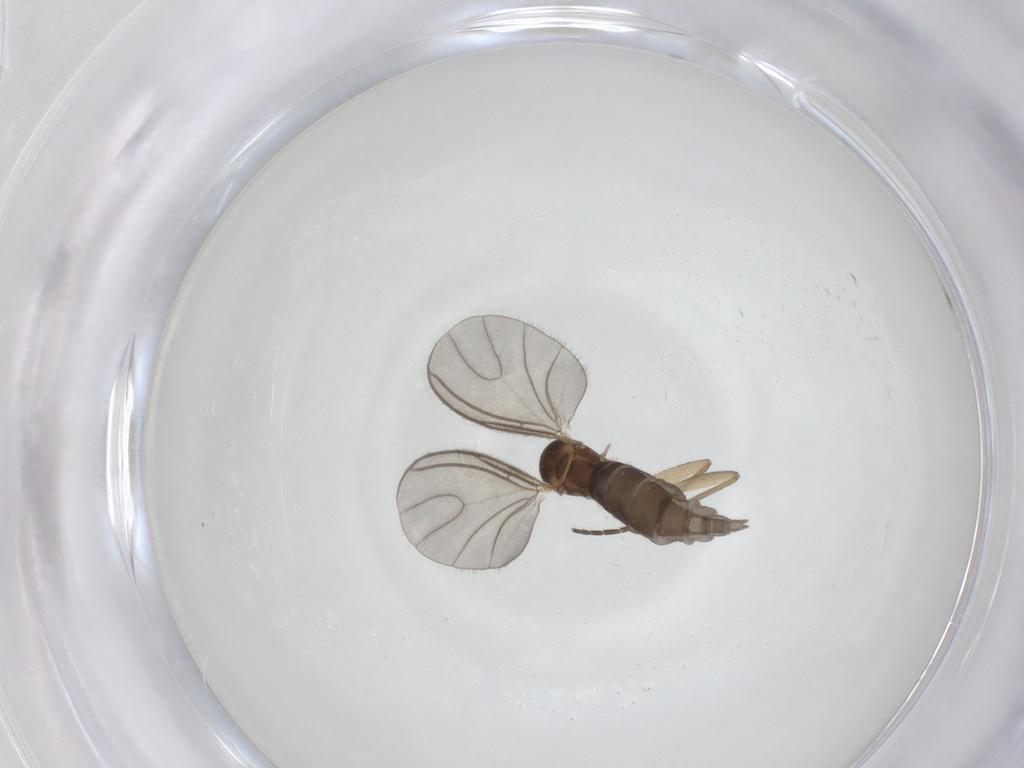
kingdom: Animalia
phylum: Arthropoda
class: Insecta
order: Diptera
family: Sciaridae
